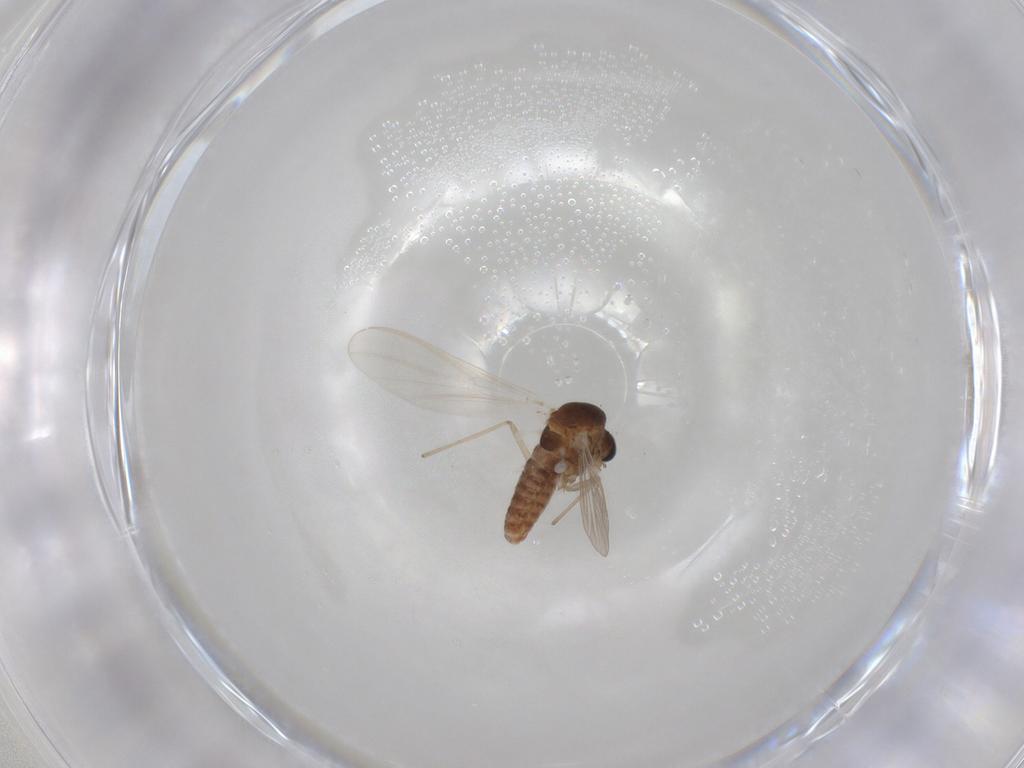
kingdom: Animalia
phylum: Arthropoda
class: Insecta
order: Diptera
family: Chironomidae
